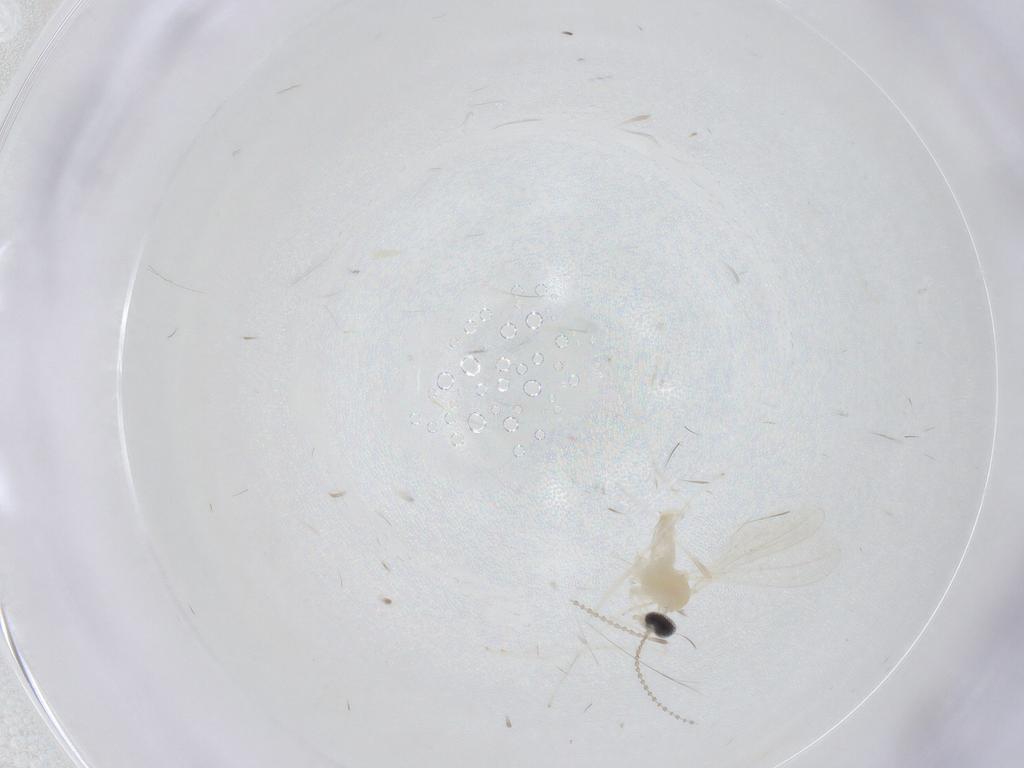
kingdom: Animalia
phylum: Arthropoda
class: Insecta
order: Diptera
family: Cecidomyiidae
